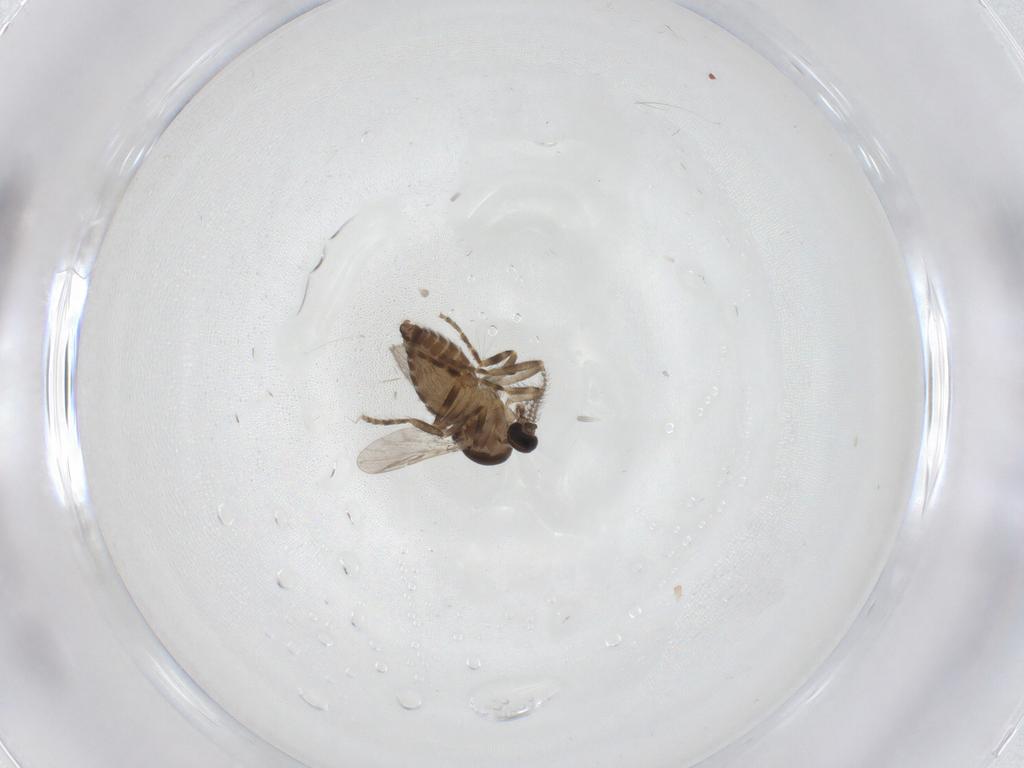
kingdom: Animalia
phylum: Arthropoda
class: Insecta
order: Diptera
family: Ceratopogonidae
